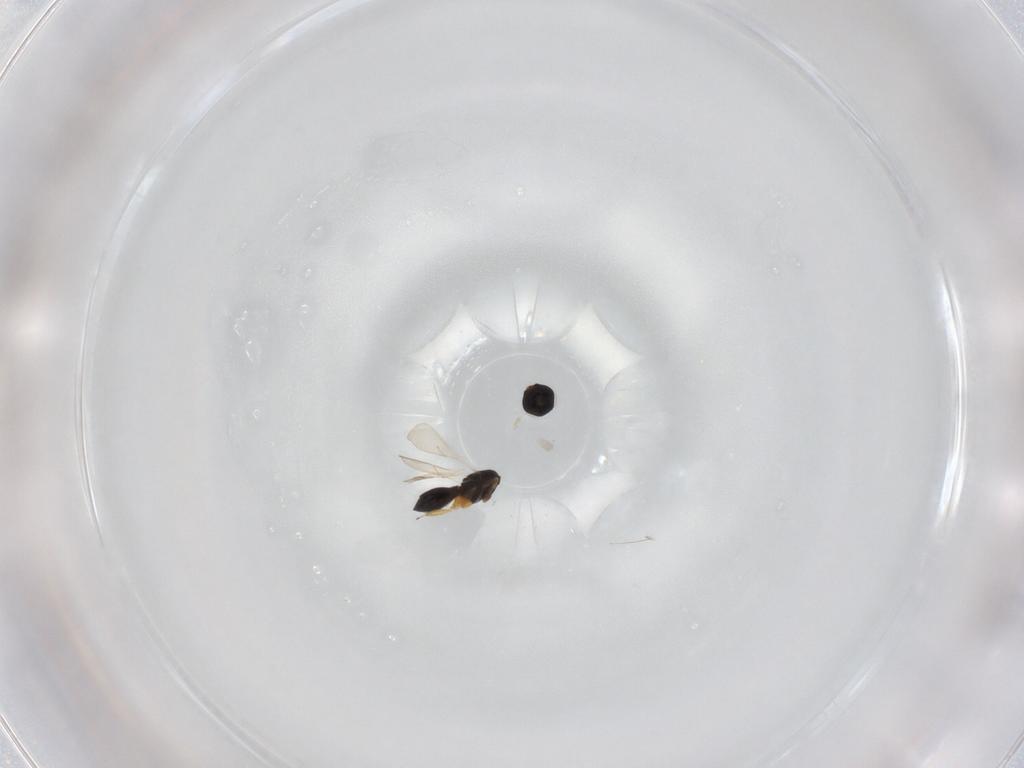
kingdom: Animalia
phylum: Arthropoda
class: Insecta
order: Hymenoptera
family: Scelionidae
